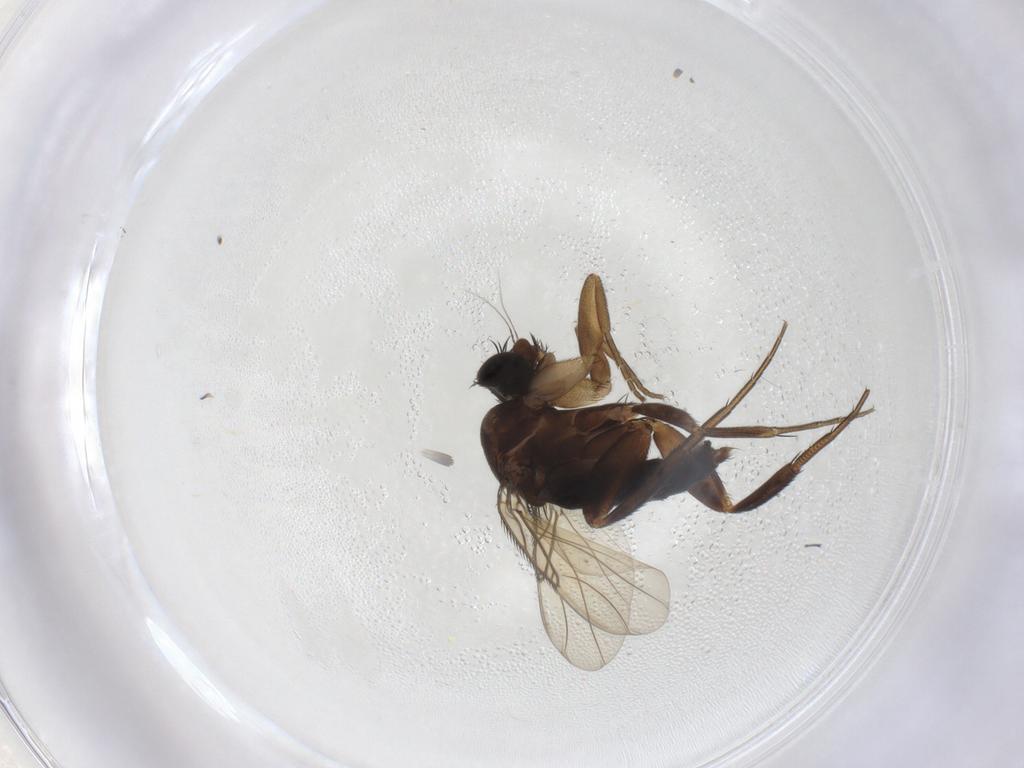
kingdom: Animalia
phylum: Arthropoda
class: Insecta
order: Diptera
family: Phoridae
